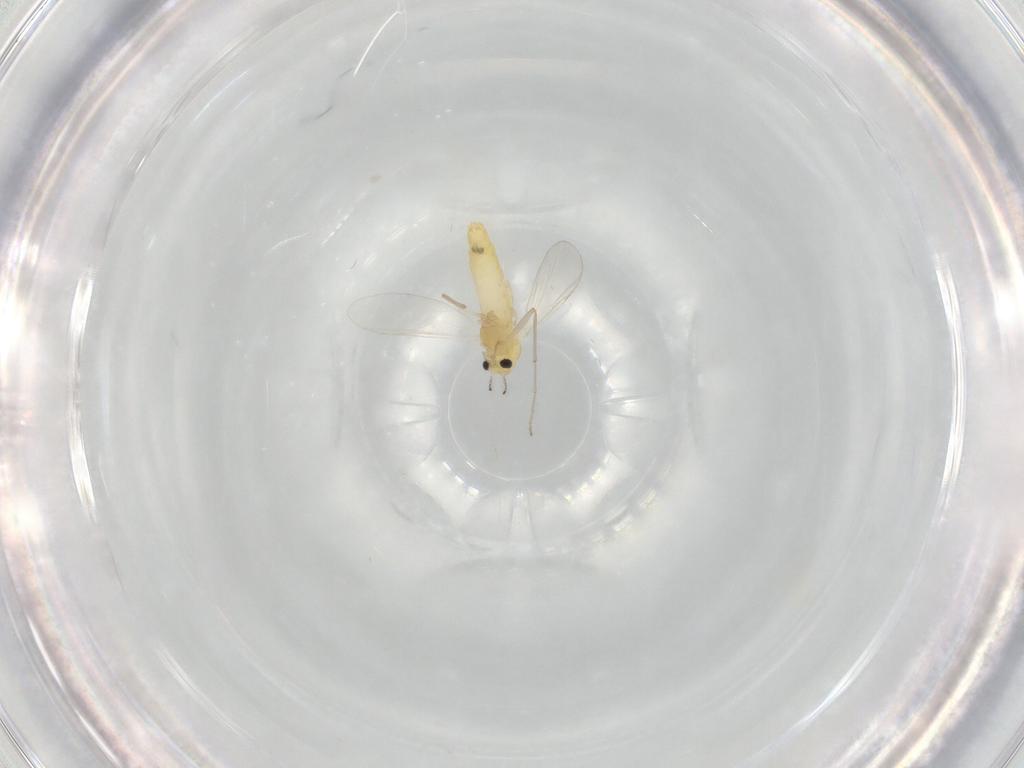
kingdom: Animalia
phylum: Arthropoda
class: Insecta
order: Diptera
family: Chironomidae
